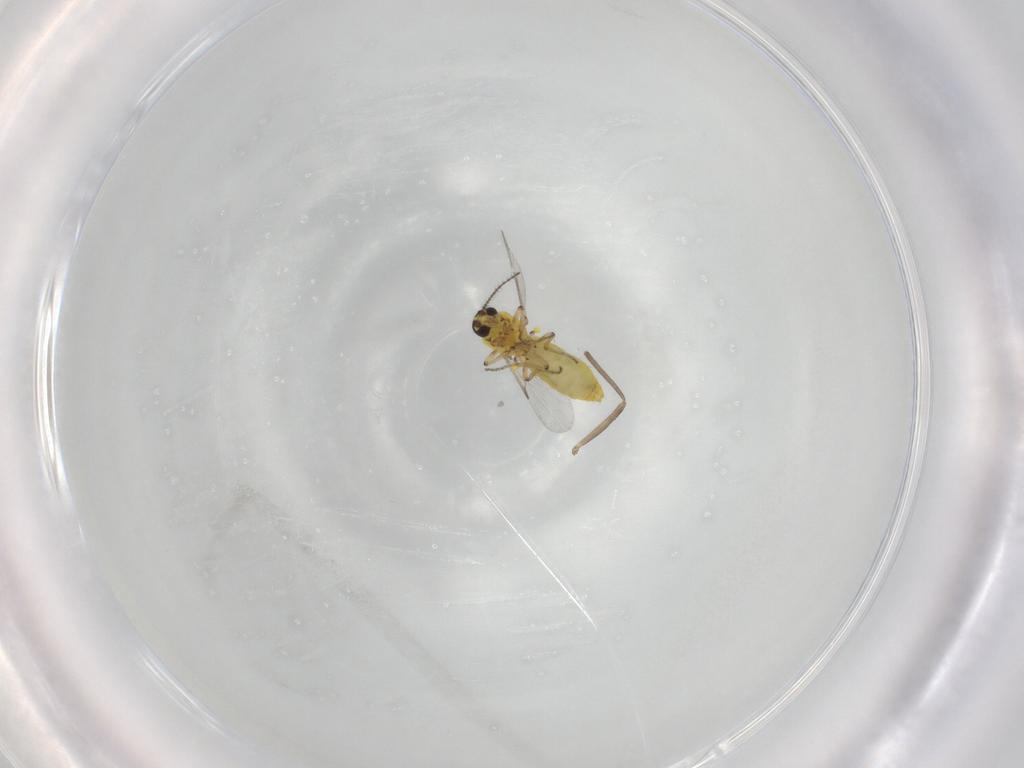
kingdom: Animalia
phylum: Arthropoda
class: Insecta
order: Diptera
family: Ceratopogonidae
